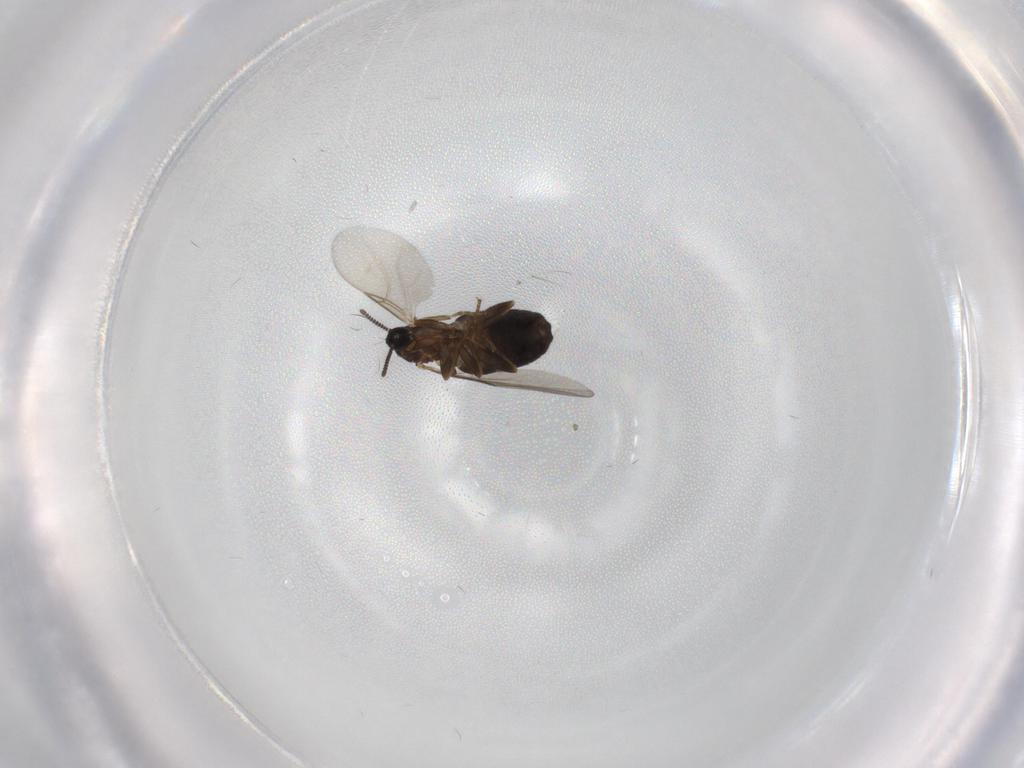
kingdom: Animalia
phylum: Arthropoda
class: Insecta
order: Diptera
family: Scatopsidae
